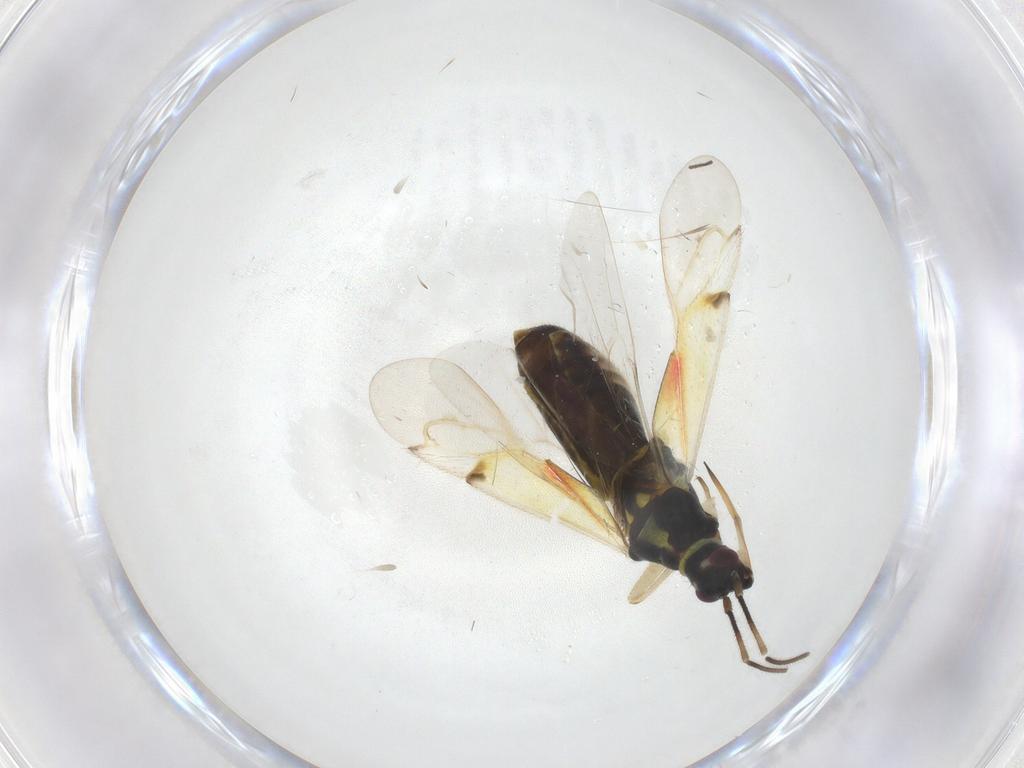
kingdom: Animalia
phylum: Arthropoda
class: Insecta
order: Hemiptera
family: Miridae
